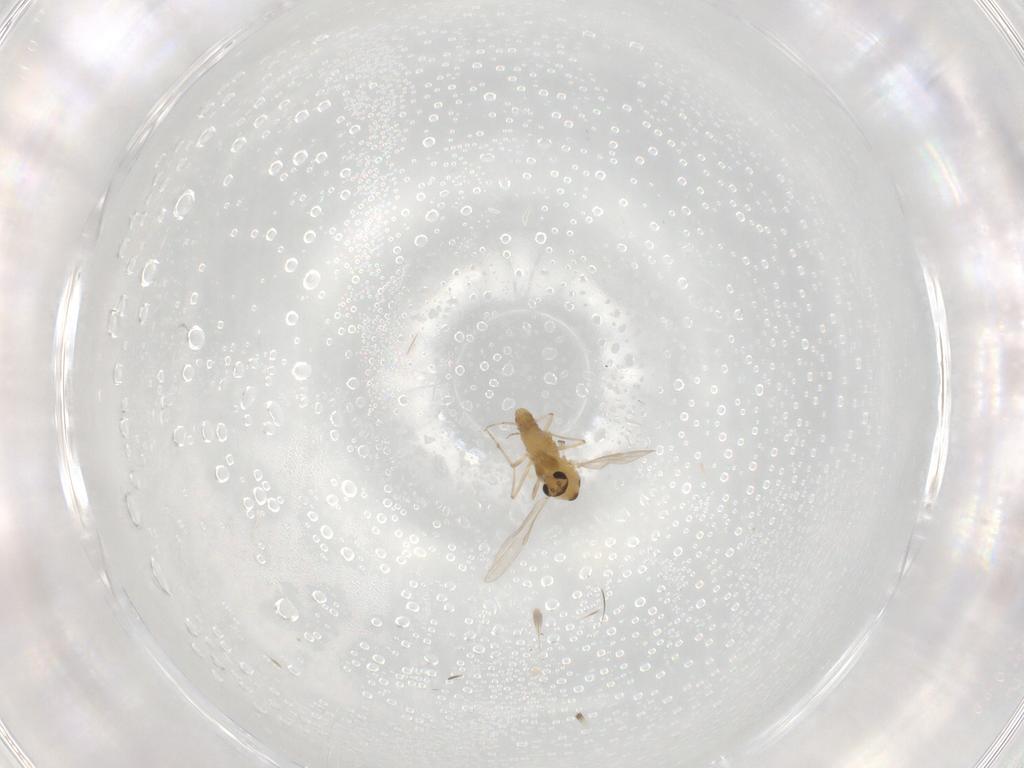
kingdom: Animalia
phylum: Arthropoda
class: Insecta
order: Diptera
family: Chironomidae
